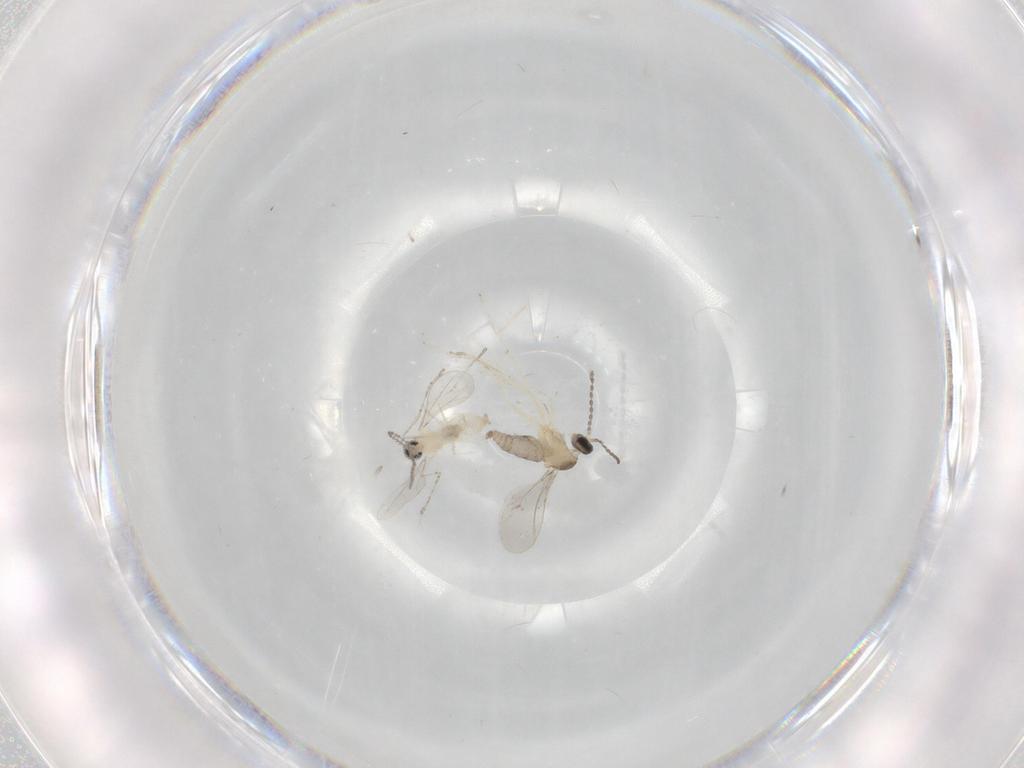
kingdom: Animalia
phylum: Arthropoda
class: Insecta
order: Diptera
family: Cecidomyiidae
